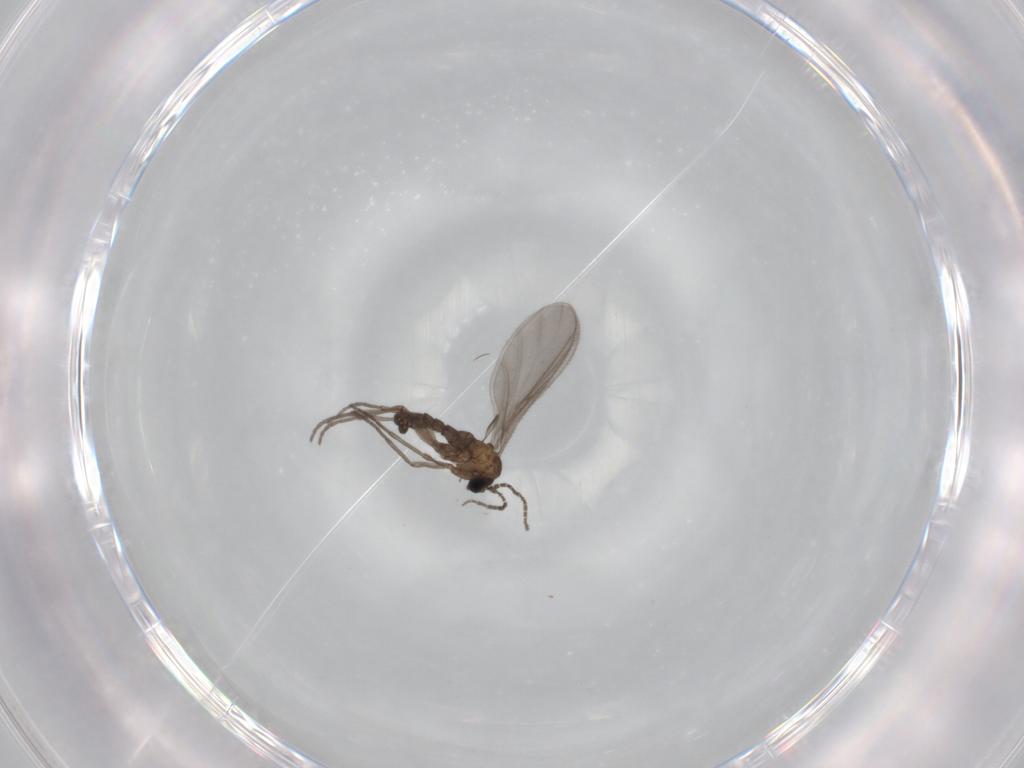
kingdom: Animalia
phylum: Arthropoda
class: Insecta
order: Diptera
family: Sciaridae
